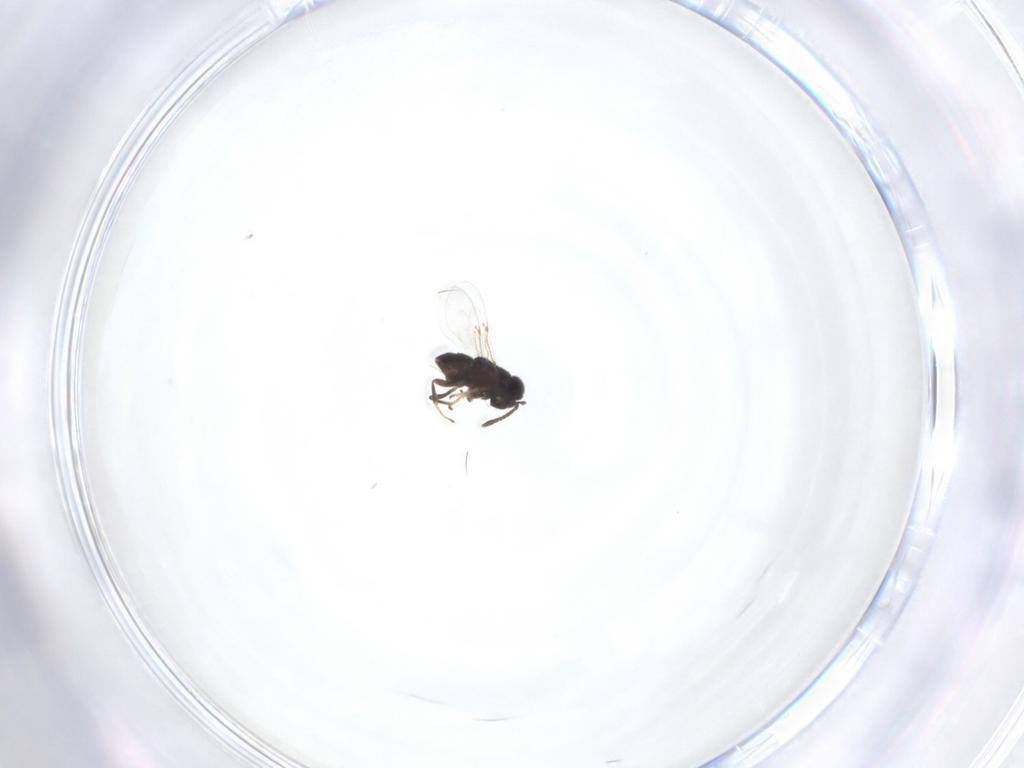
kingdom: Animalia
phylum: Arthropoda
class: Insecta
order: Hymenoptera
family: Encyrtidae
